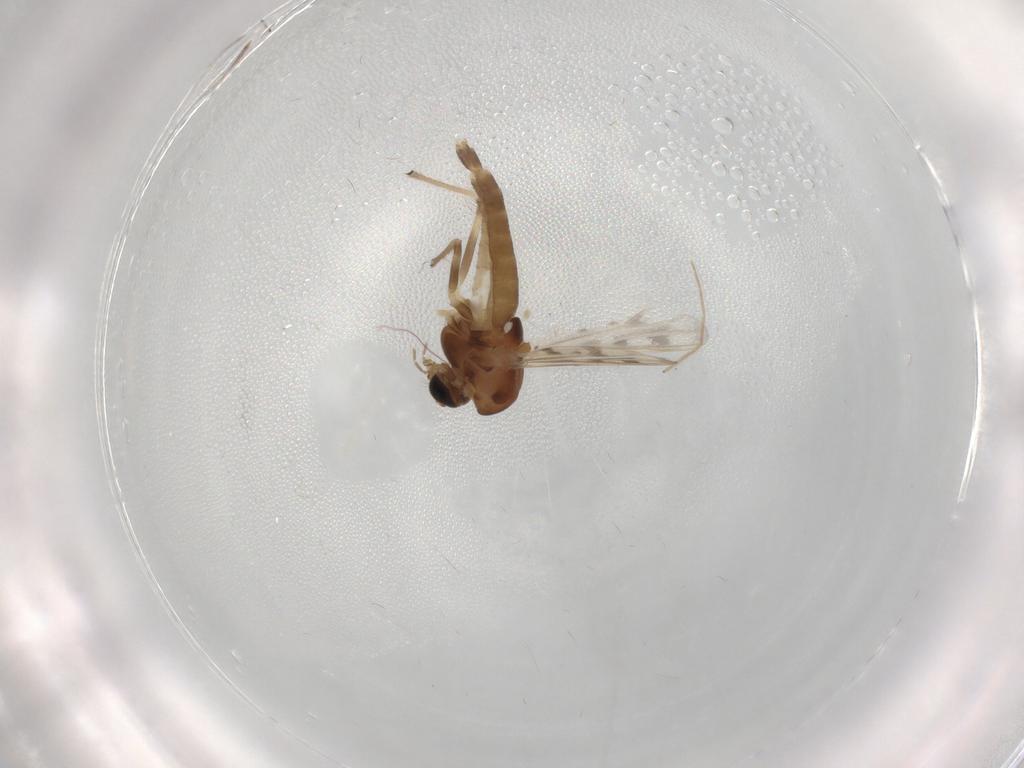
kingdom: Animalia
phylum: Arthropoda
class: Insecta
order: Diptera
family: Chironomidae
